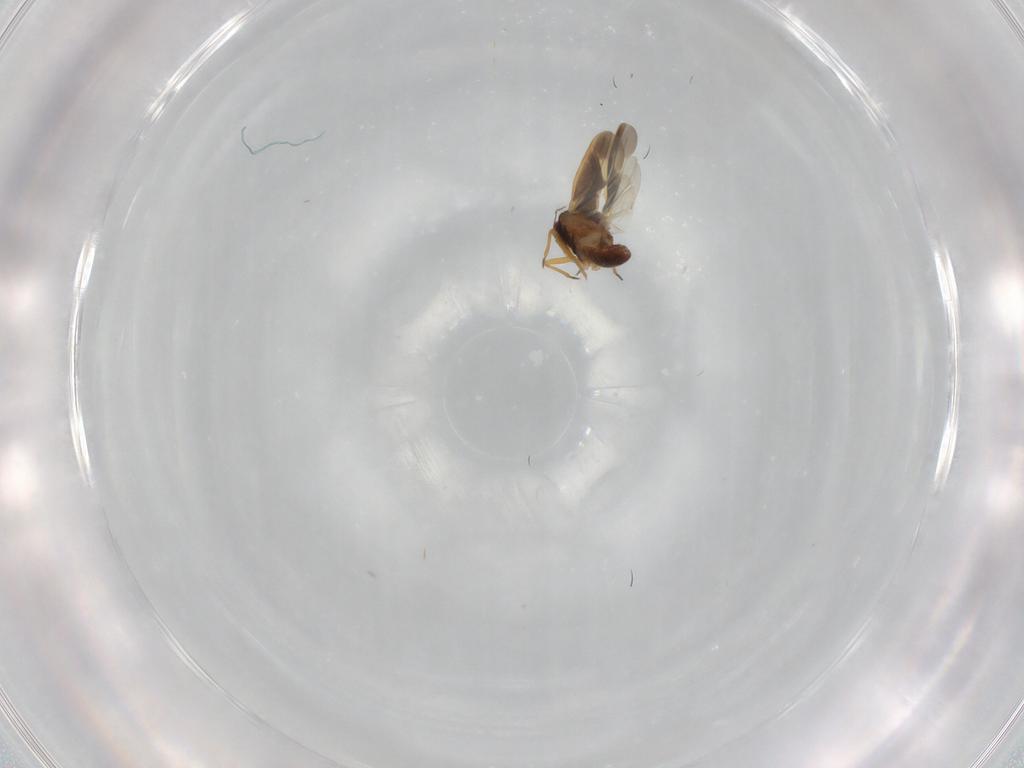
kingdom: Animalia
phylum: Arthropoda
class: Insecta
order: Hemiptera
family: Schizopteridae
